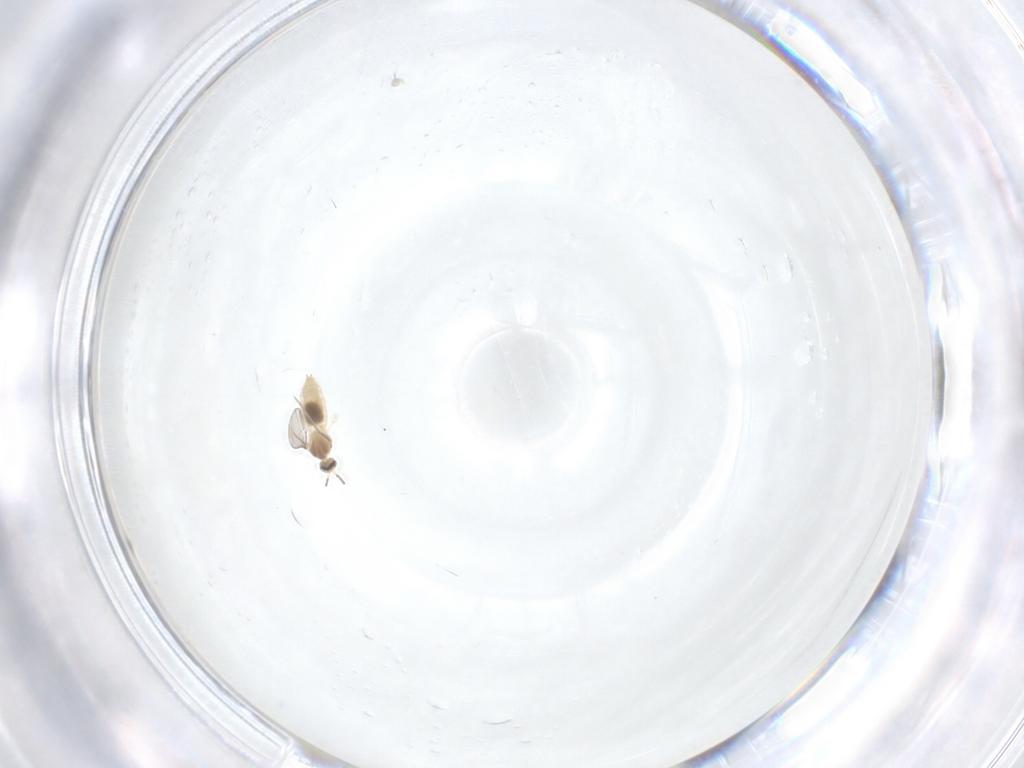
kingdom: Animalia
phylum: Arthropoda
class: Insecta
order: Diptera
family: Cecidomyiidae
